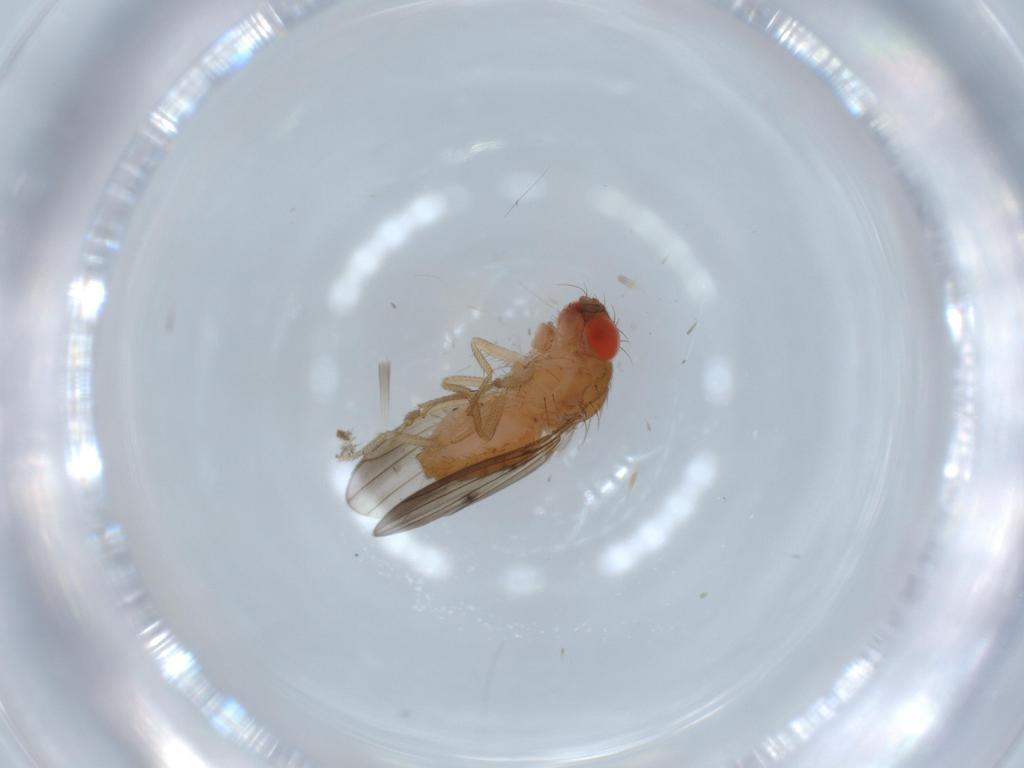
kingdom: Animalia
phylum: Arthropoda
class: Insecta
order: Diptera
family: Drosophilidae
